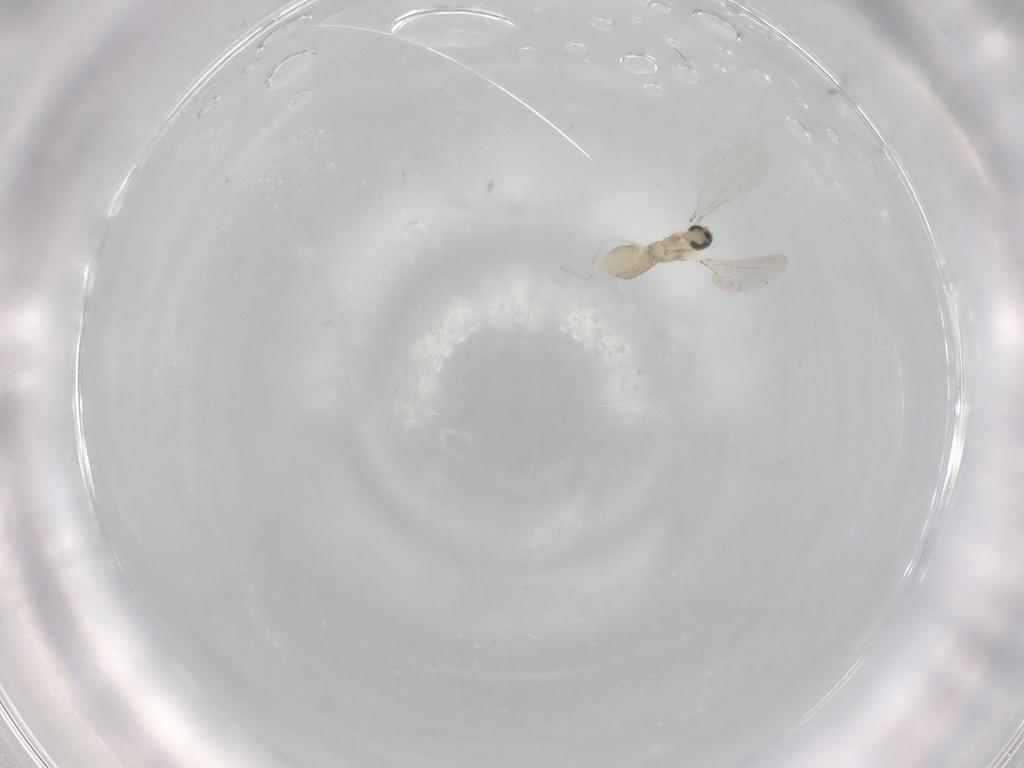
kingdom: Animalia
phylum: Arthropoda
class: Insecta
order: Diptera
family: Cecidomyiidae
